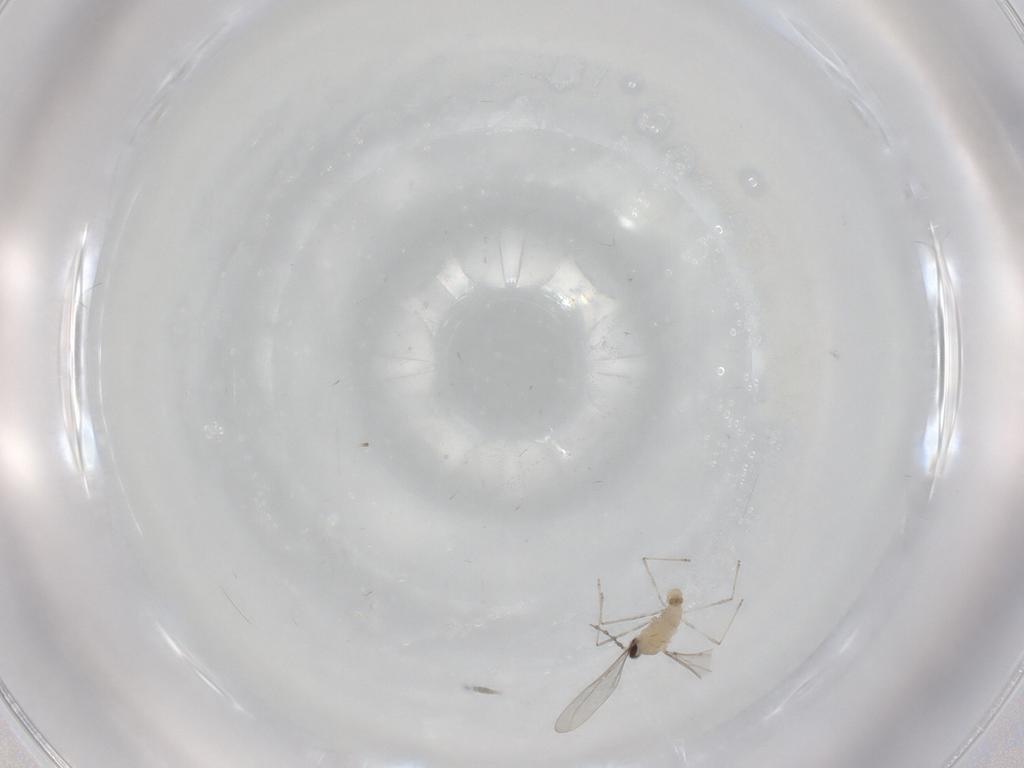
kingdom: Animalia
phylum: Arthropoda
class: Insecta
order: Diptera
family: Cecidomyiidae
